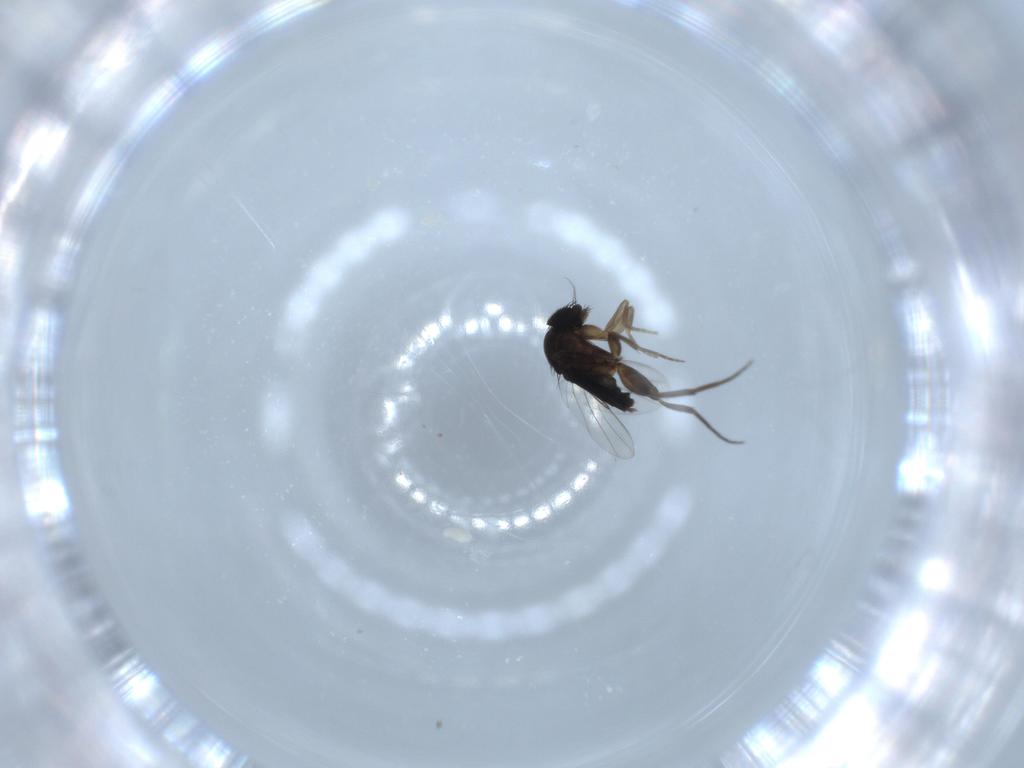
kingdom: Animalia
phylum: Arthropoda
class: Insecta
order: Diptera
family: Phoridae
